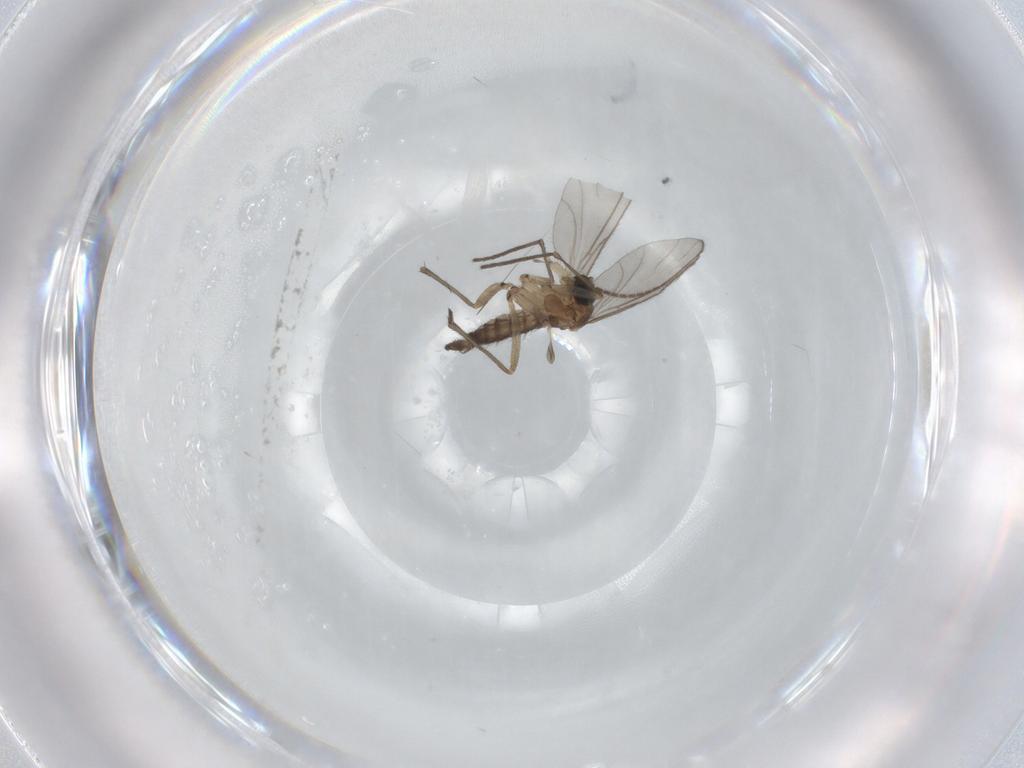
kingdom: Animalia
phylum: Arthropoda
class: Insecta
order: Diptera
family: Sciaridae
